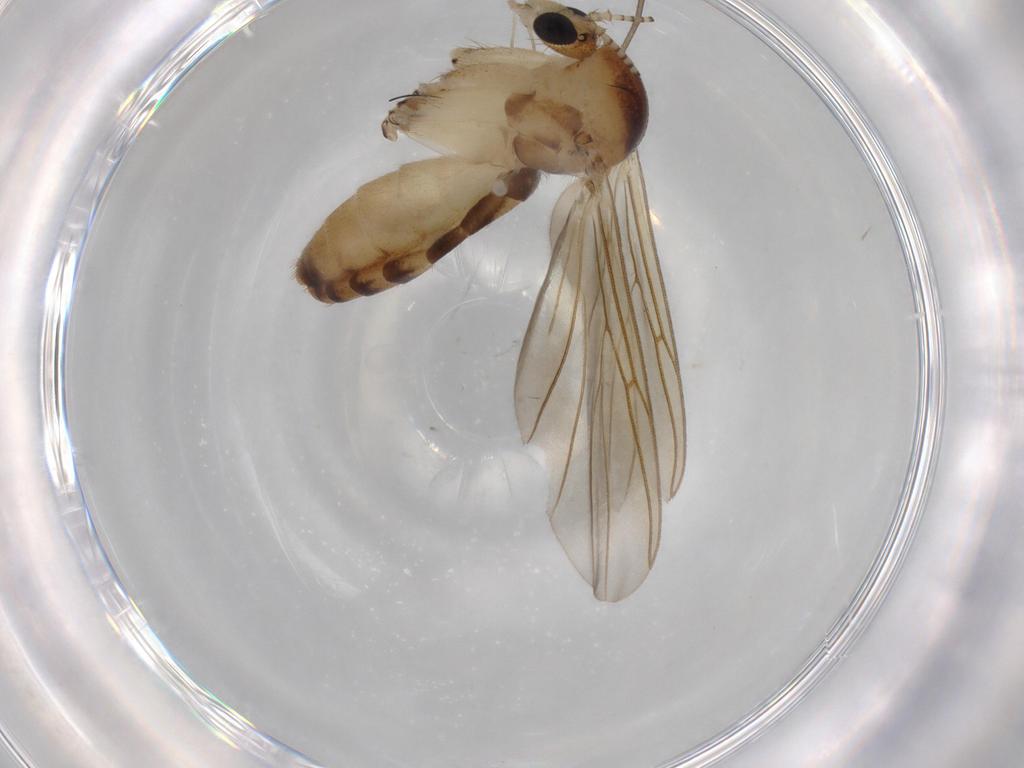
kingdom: Animalia
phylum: Arthropoda
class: Insecta
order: Diptera
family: Mycetophilidae
